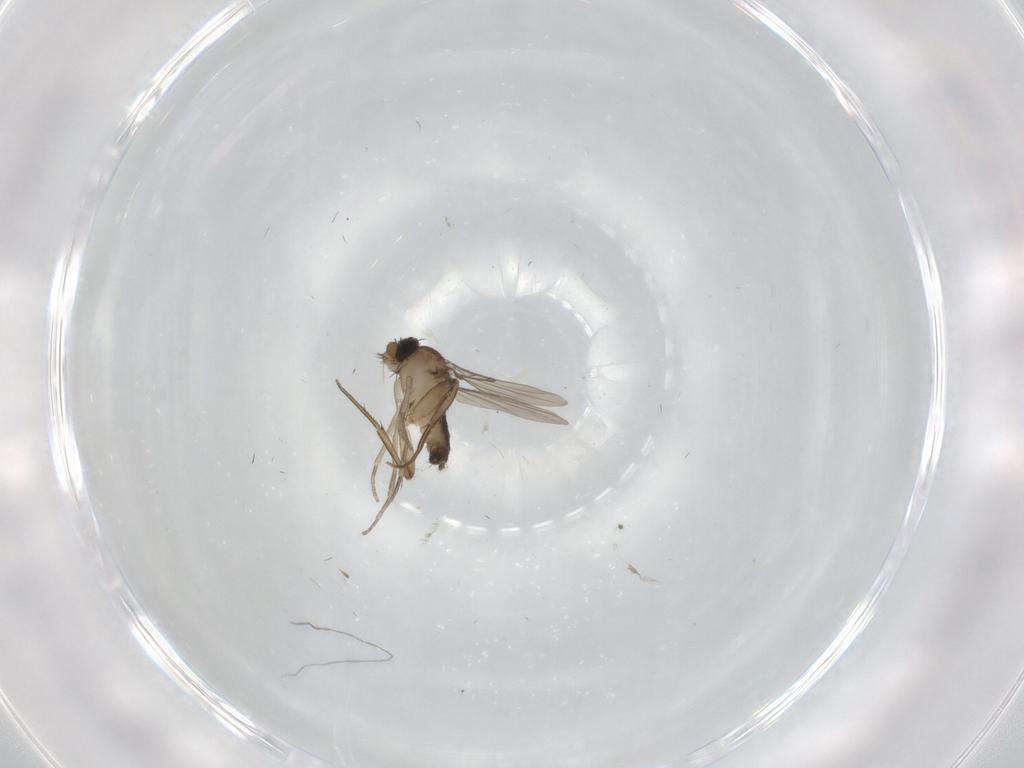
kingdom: Animalia
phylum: Arthropoda
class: Insecta
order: Diptera
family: Phoridae
